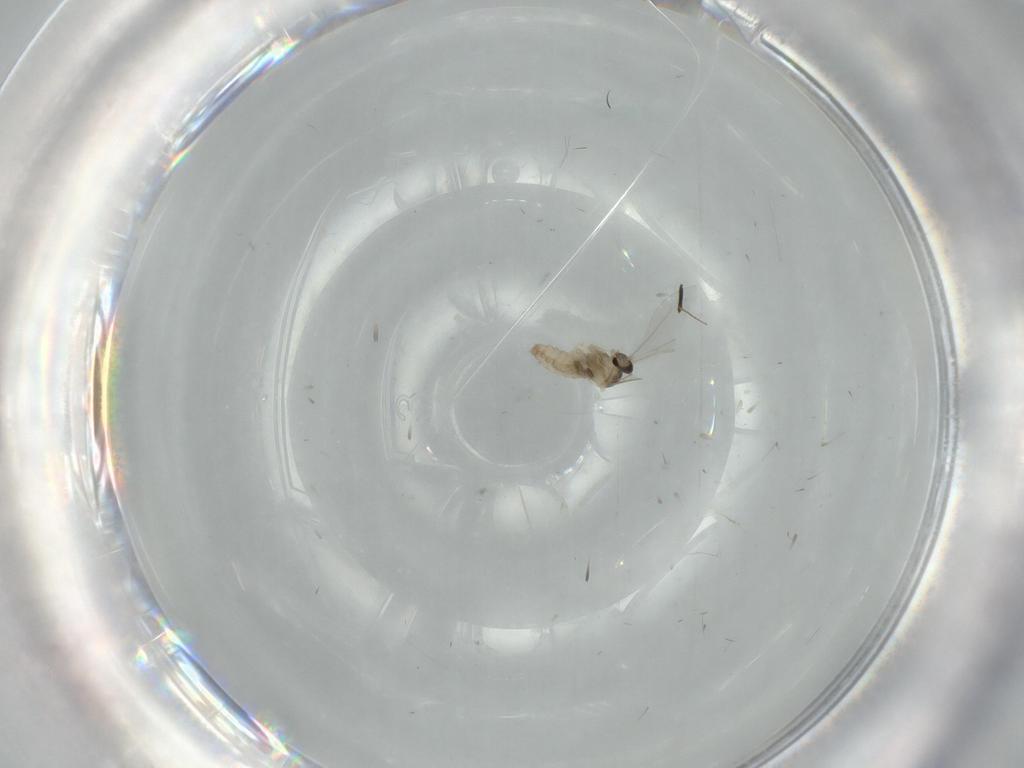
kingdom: Animalia
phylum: Arthropoda
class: Insecta
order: Diptera
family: Cecidomyiidae
